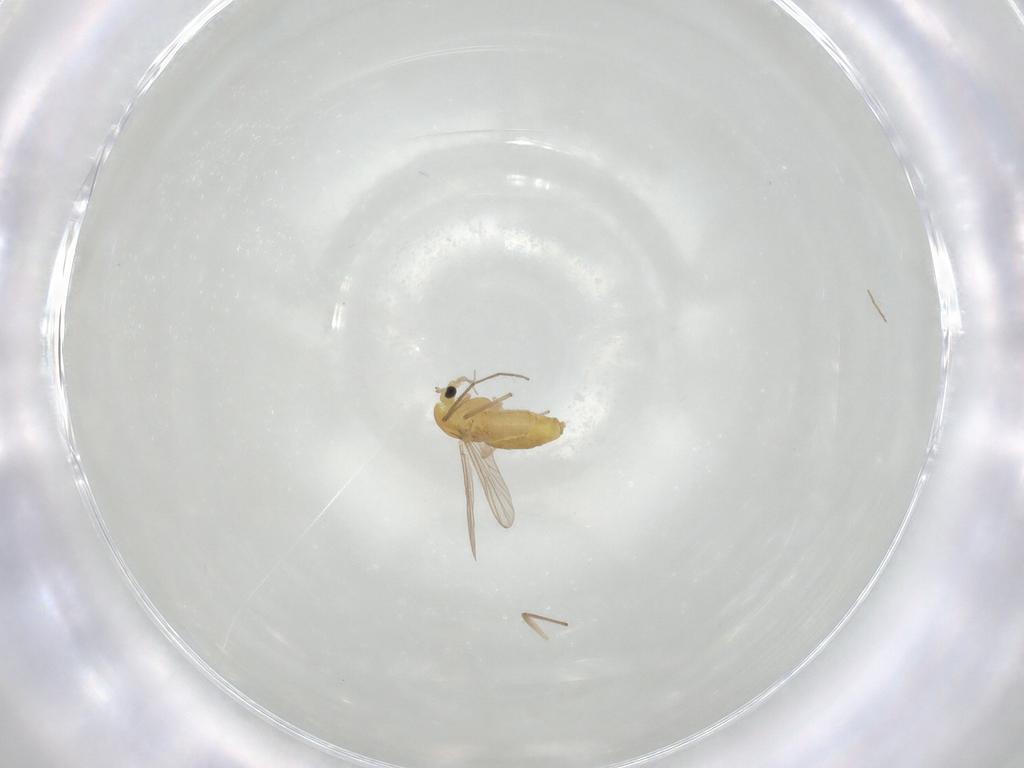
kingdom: Animalia
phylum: Arthropoda
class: Insecta
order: Diptera
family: Chironomidae
